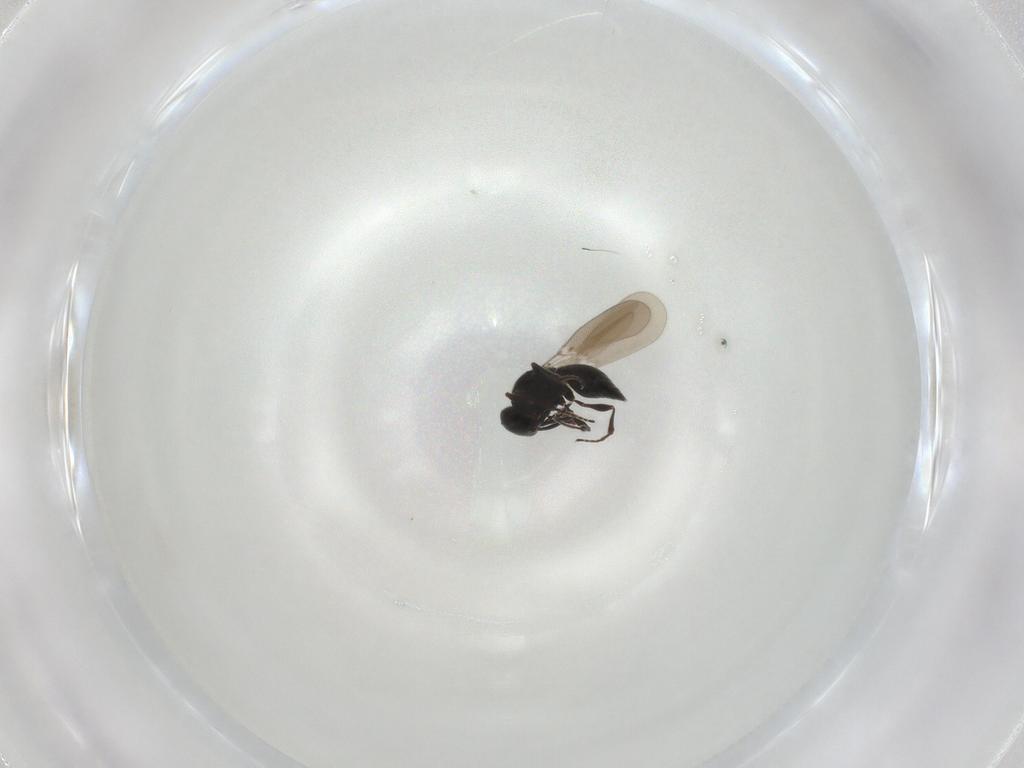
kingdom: Animalia
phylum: Arthropoda
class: Insecta
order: Hymenoptera
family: Platygastridae
